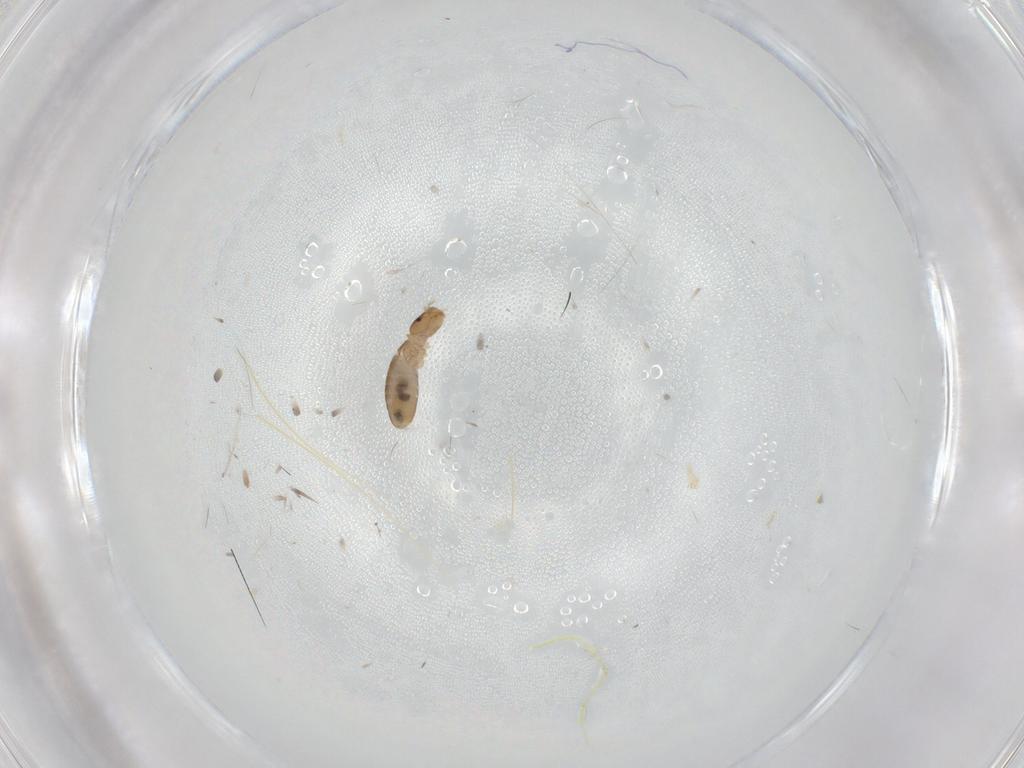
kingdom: Animalia
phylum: Arthropoda
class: Insecta
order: Psocodea
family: Liposcelididae
